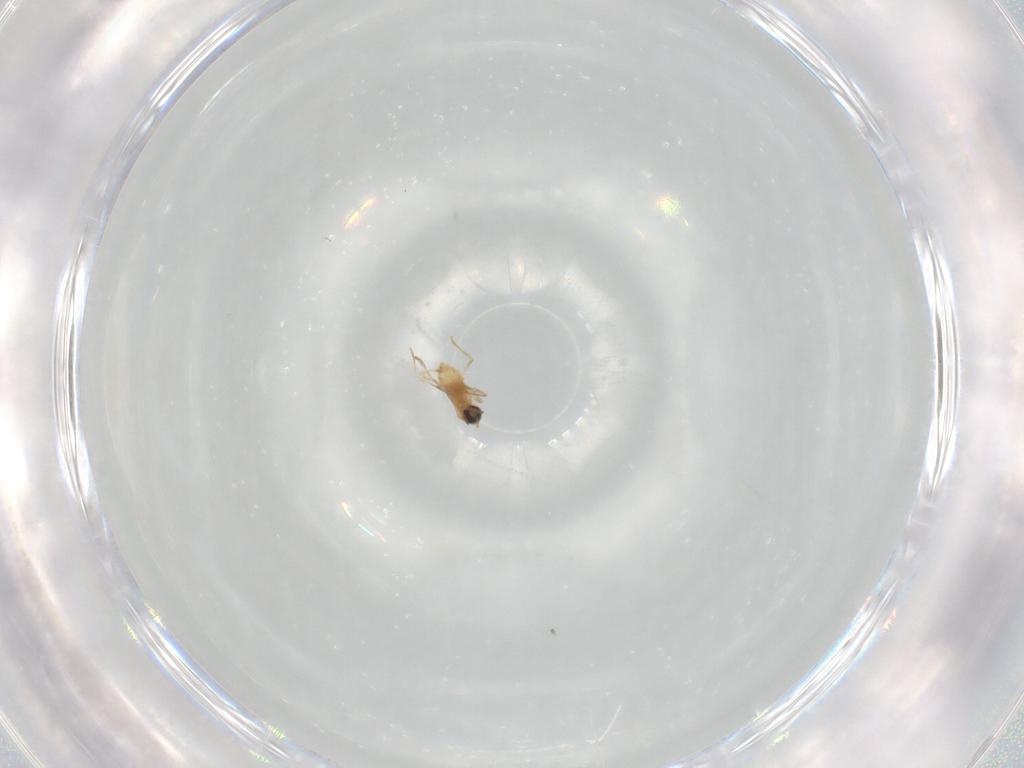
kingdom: Animalia
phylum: Arthropoda
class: Insecta
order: Diptera
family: Cecidomyiidae
